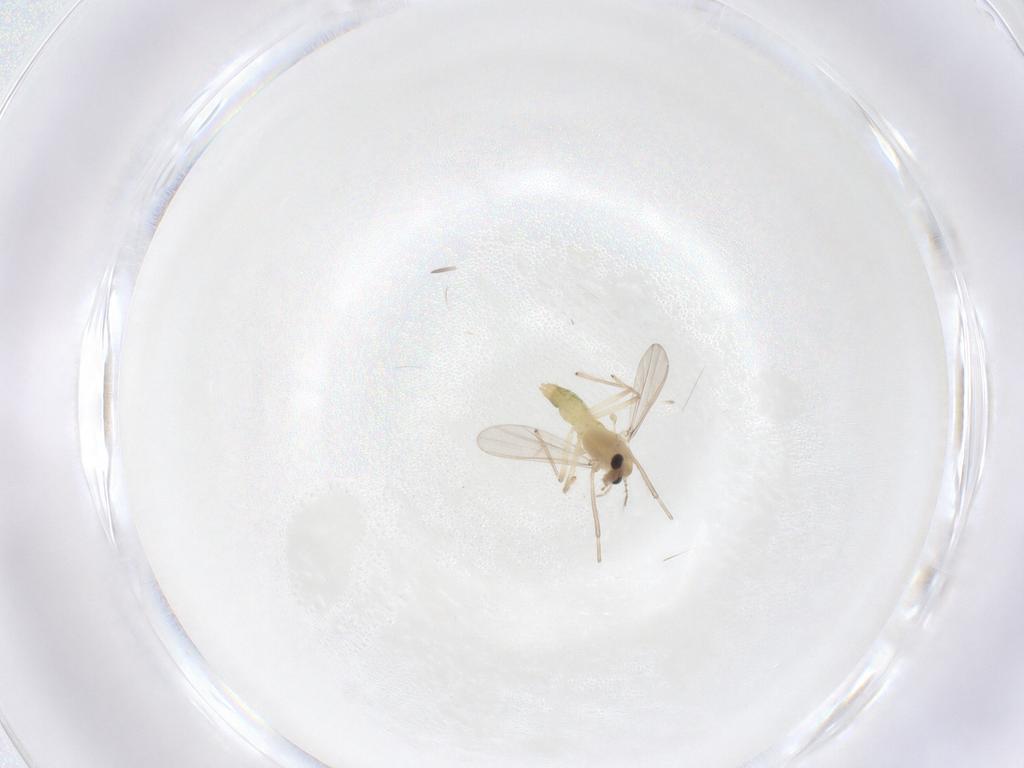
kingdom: Animalia
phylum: Arthropoda
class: Insecta
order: Diptera
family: Chironomidae
